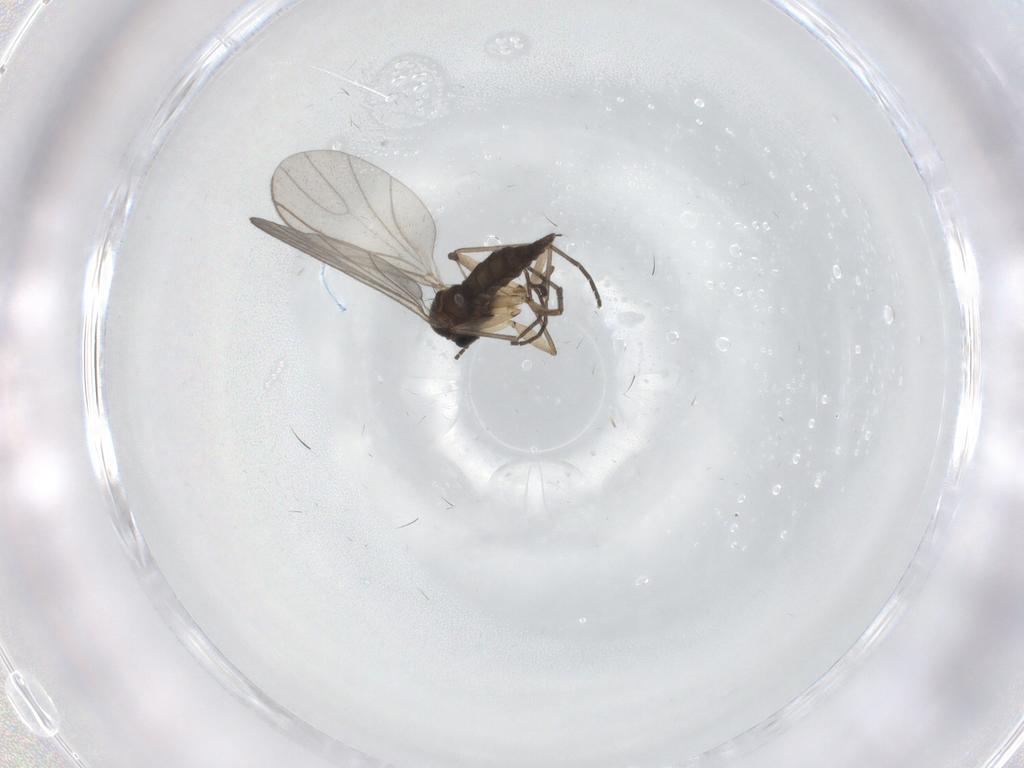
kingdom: Animalia
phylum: Arthropoda
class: Insecta
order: Diptera
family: Sciaridae
